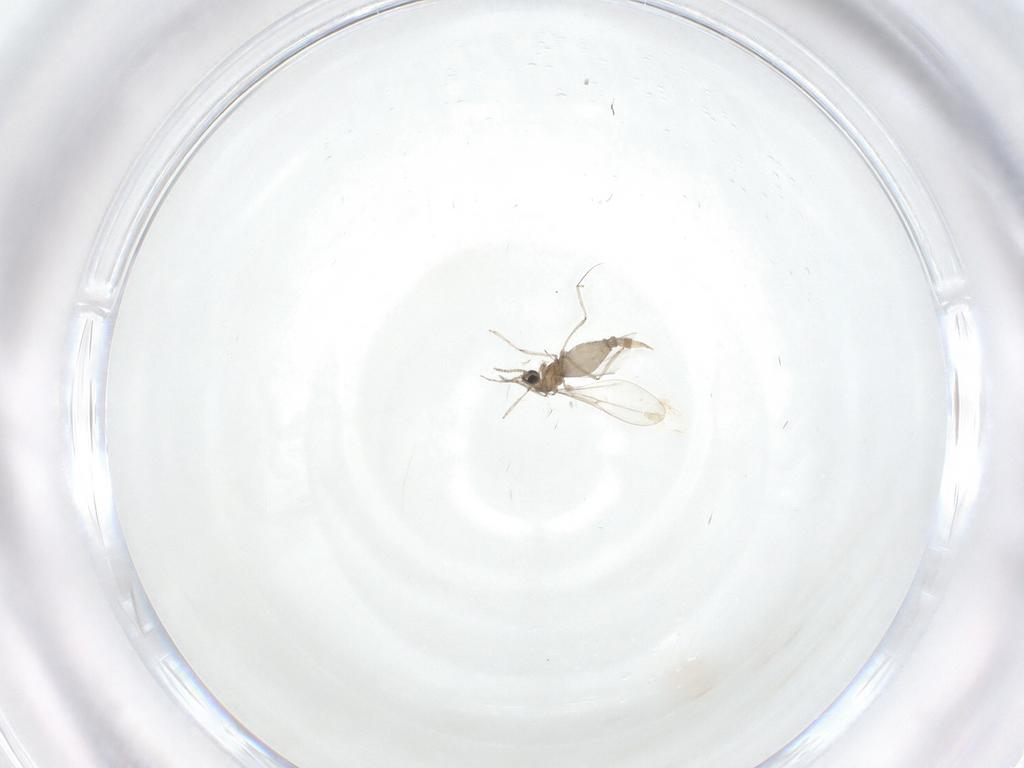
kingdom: Animalia
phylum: Arthropoda
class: Insecta
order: Diptera
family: Cecidomyiidae
